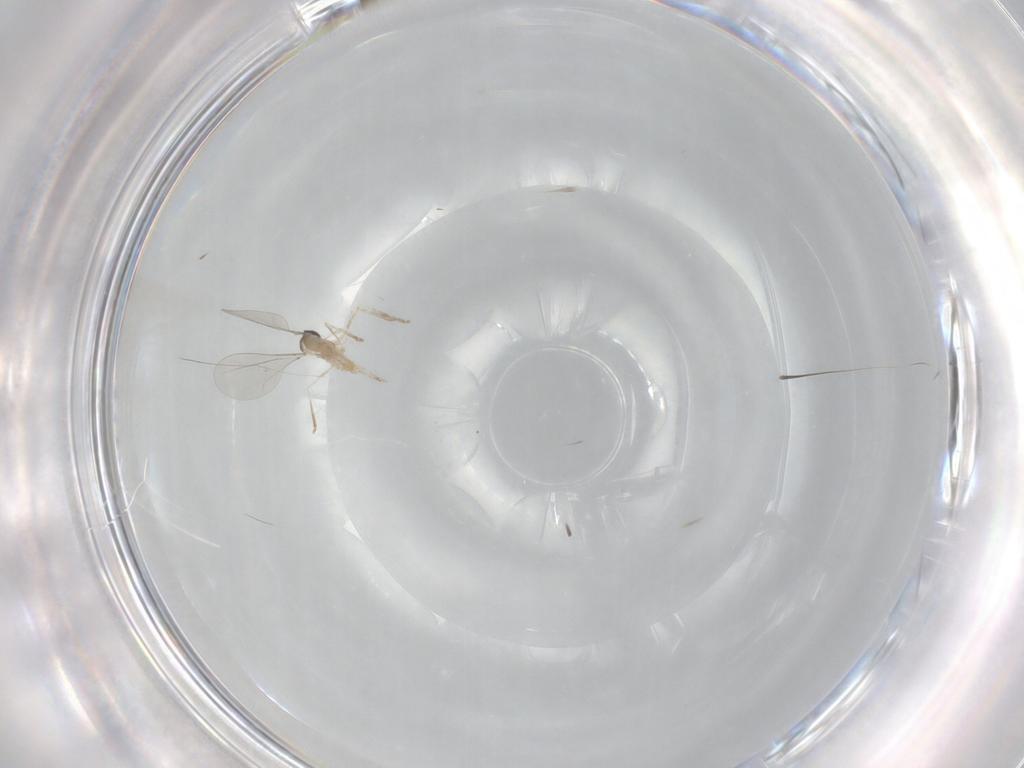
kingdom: Animalia
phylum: Arthropoda
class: Insecta
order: Diptera
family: Cecidomyiidae
